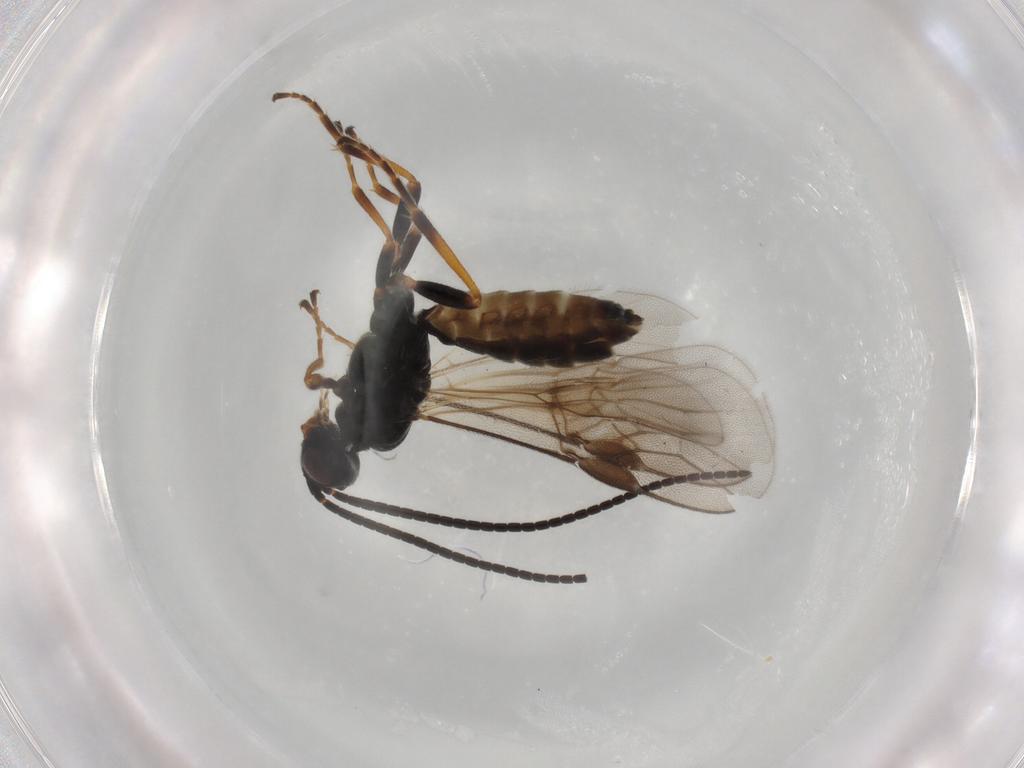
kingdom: Animalia
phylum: Arthropoda
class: Insecta
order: Hymenoptera
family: Braconidae
